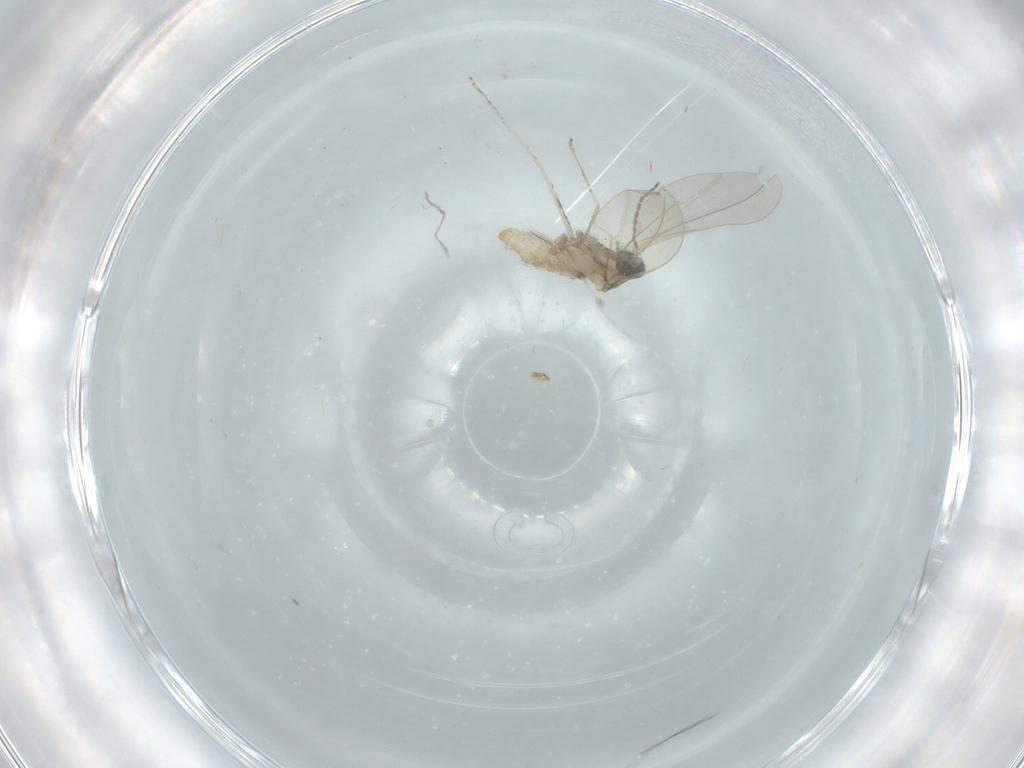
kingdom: Animalia
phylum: Arthropoda
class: Insecta
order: Diptera
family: Cecidomyiidae
